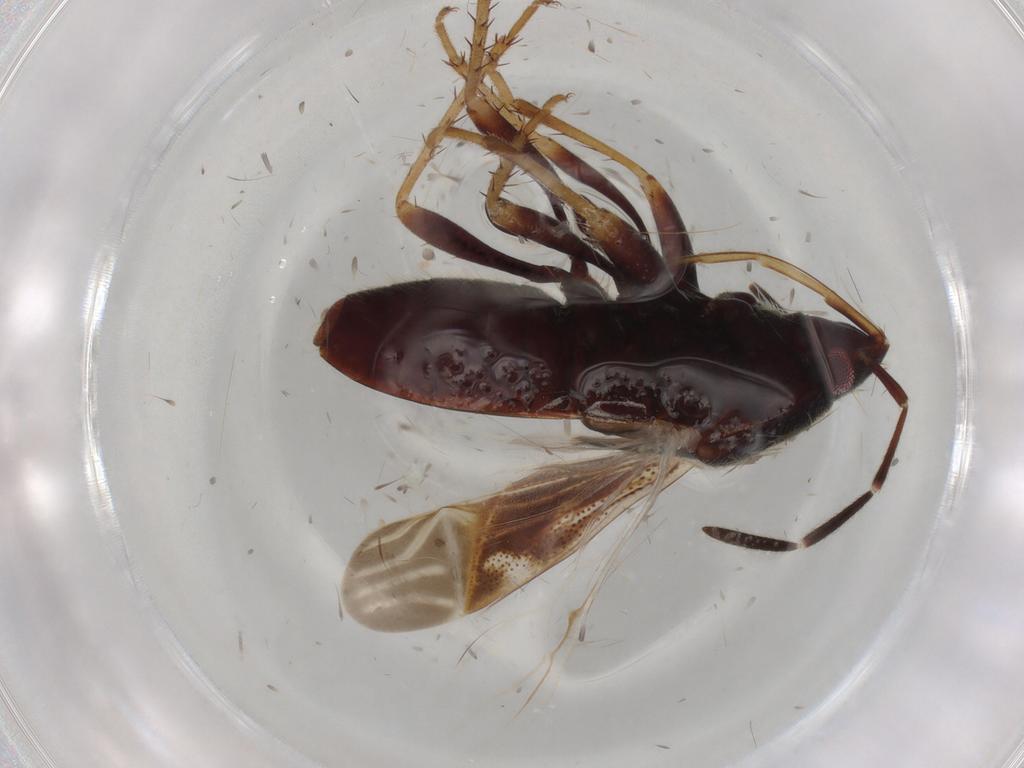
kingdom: Animalia
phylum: Arthropoda
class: Insecta
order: Hemiptera
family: Rhyparochromidae
